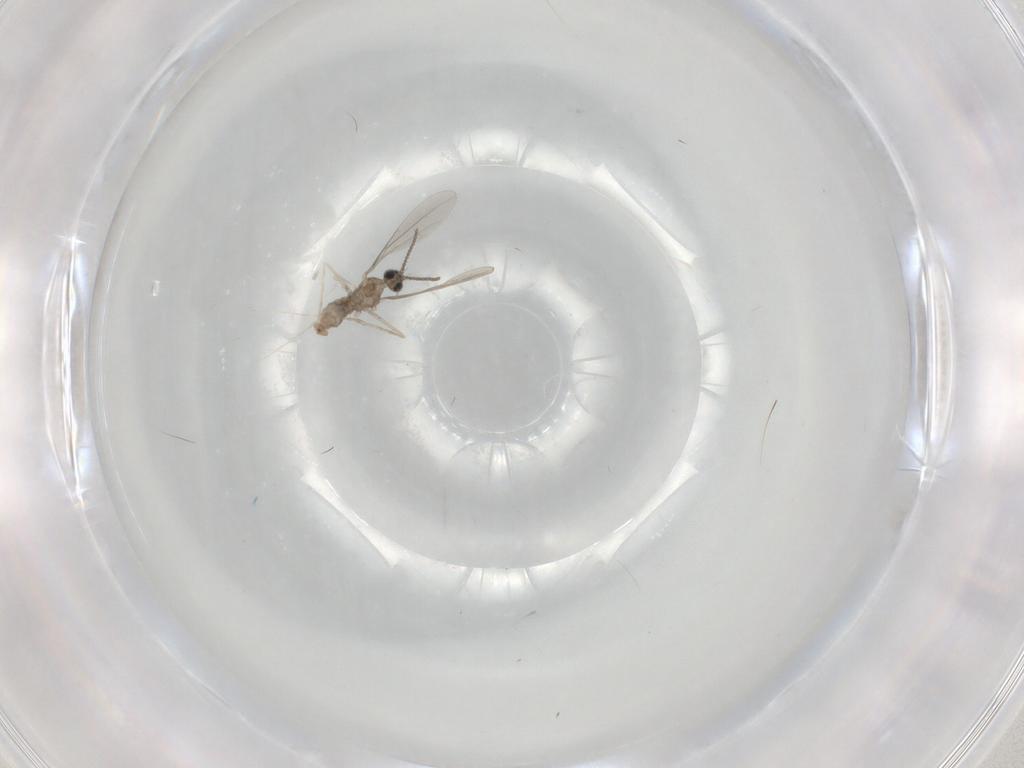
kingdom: Animalia
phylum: Arthropoda
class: Insecta
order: Diptera
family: Cecidomyiidae
